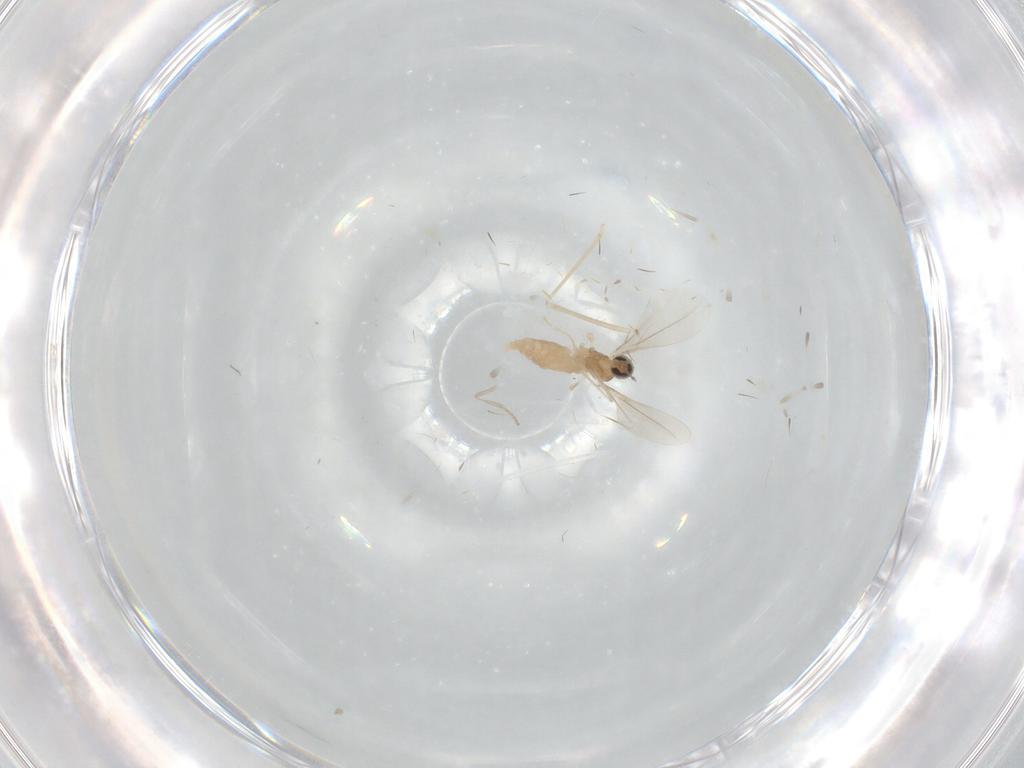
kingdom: Animalia
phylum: Arthropoda
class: Insecta
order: Diptera
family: Cecidomyiidae
